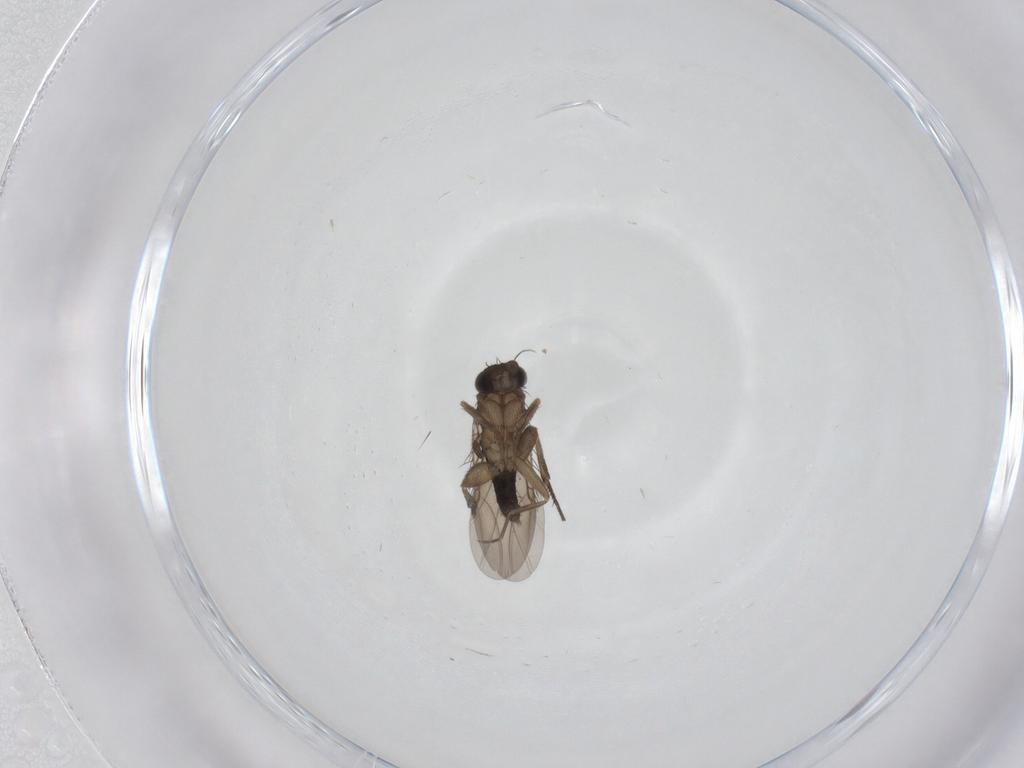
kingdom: Animalia
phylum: Arthropoda
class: Insecta
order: Diptera
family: Phoridae
